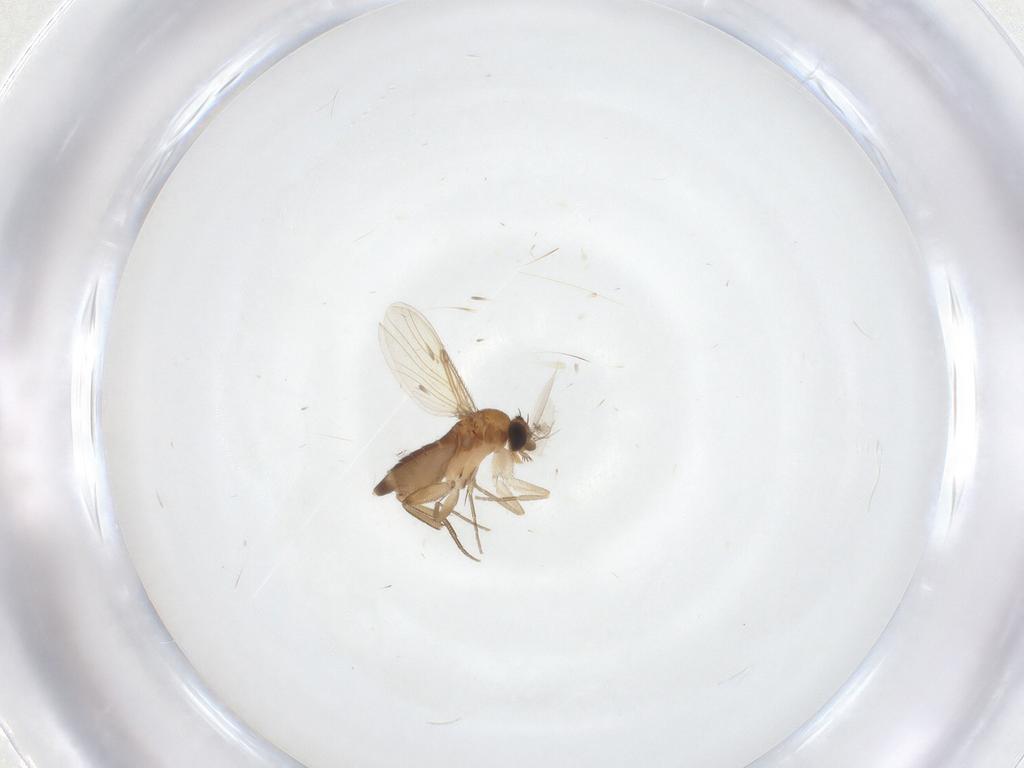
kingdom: Animalia
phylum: Arthropoda
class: Insecta
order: Diptera
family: Phoridae
